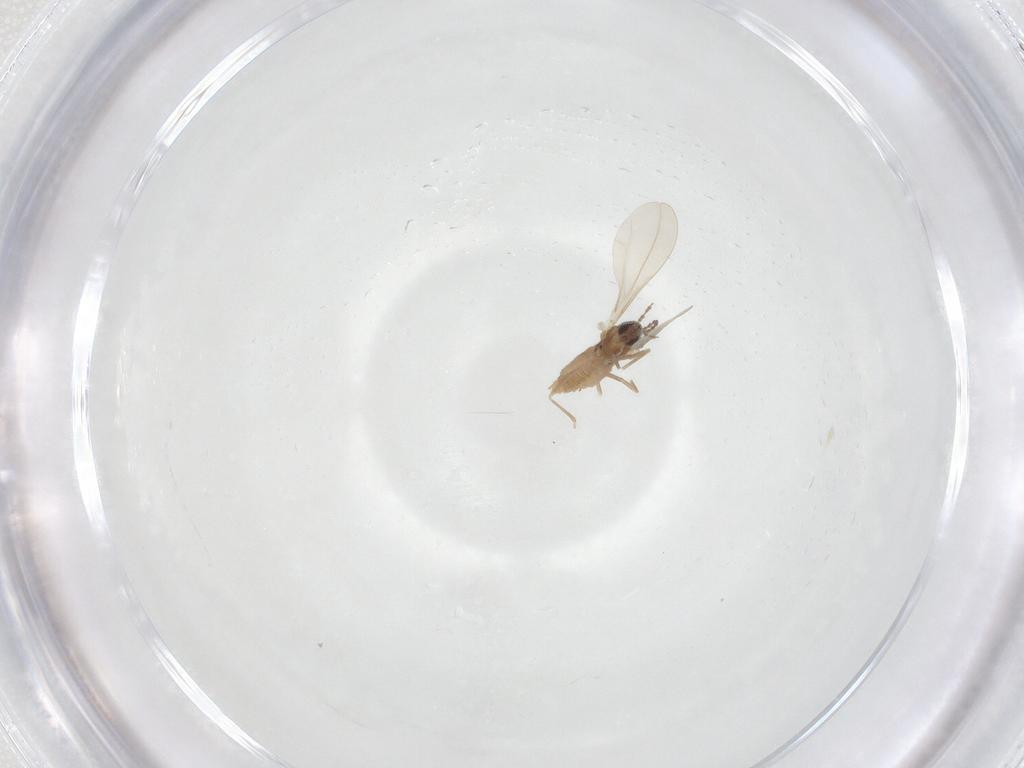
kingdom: Animalia
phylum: Arthropoda
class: Insecta
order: Diptera
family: Cecidomyiidae
